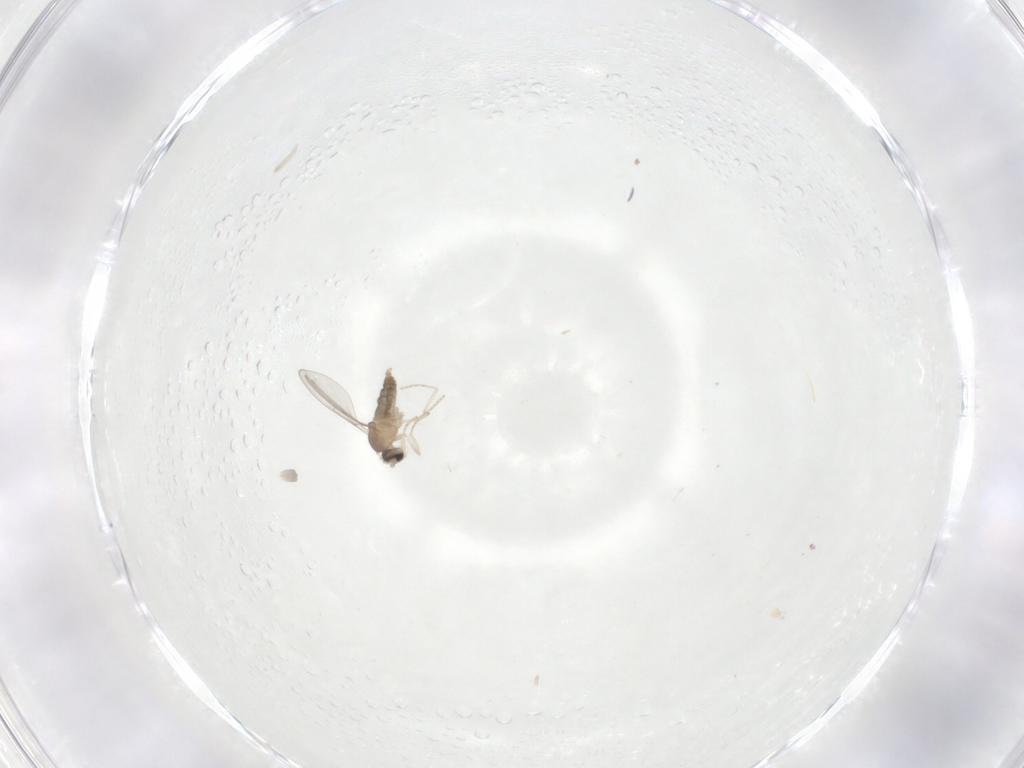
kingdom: Animalia
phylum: Arthropoda
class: Insecta
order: Diptera
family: Cecidomyiidae
